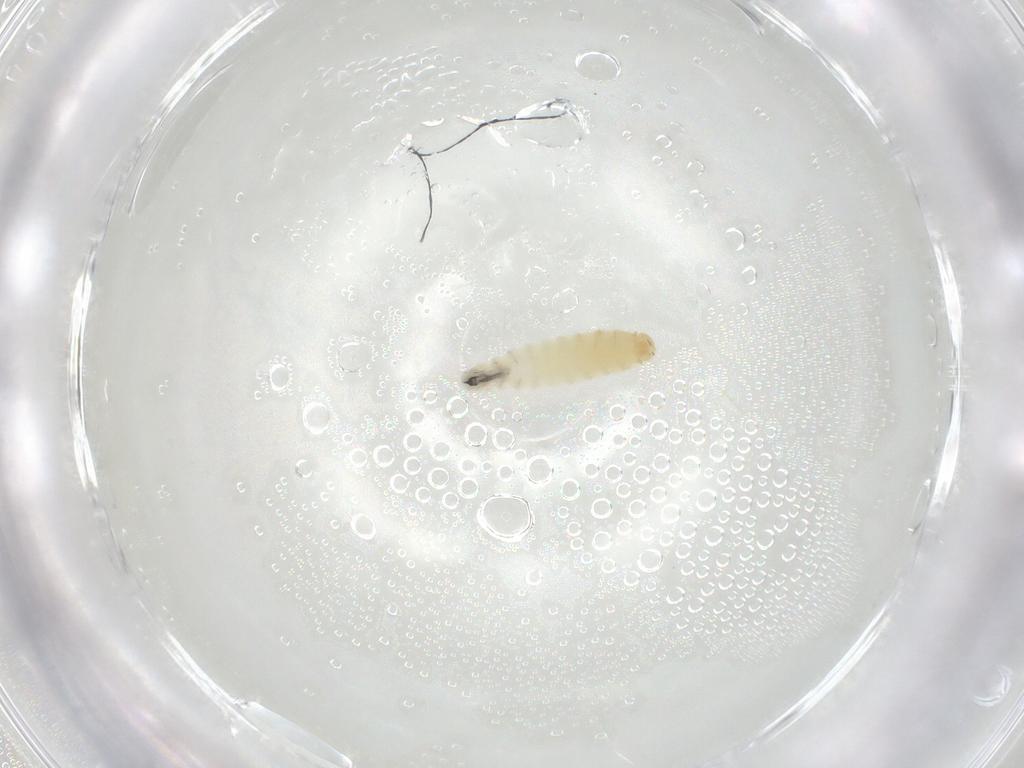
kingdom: Animalia
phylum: Arthropoda
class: Insecta
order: Diptera
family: Sarcophagidae
